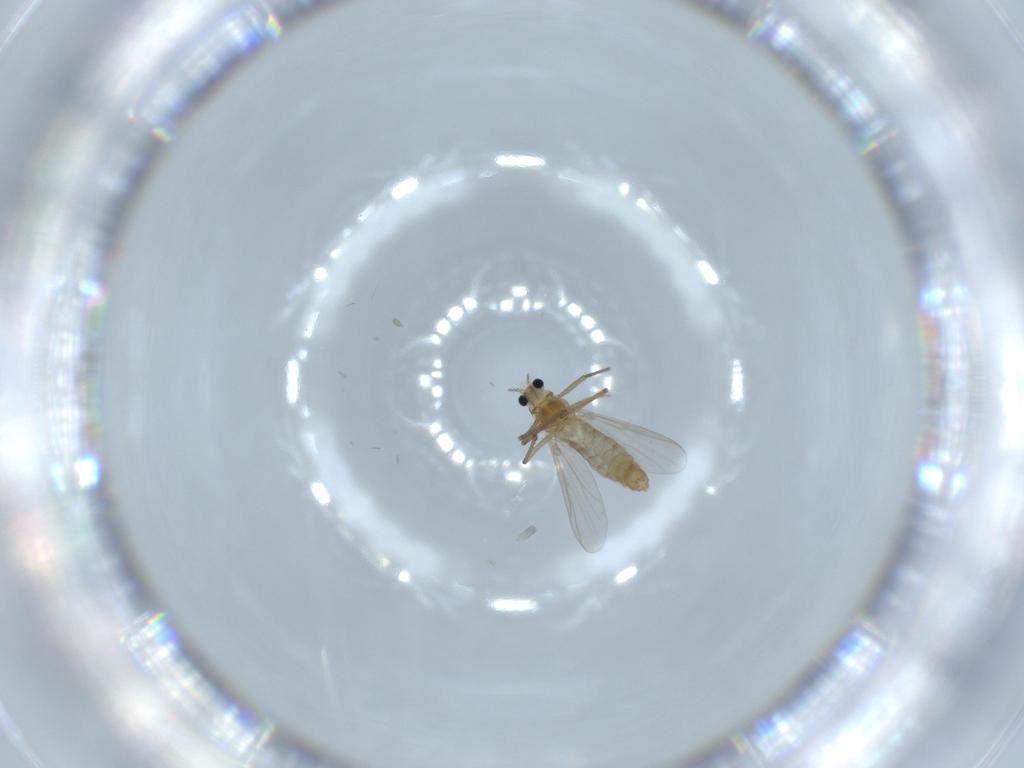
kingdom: Animalia
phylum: Arthropoda
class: Insecta
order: Diptera
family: Chironomidae
